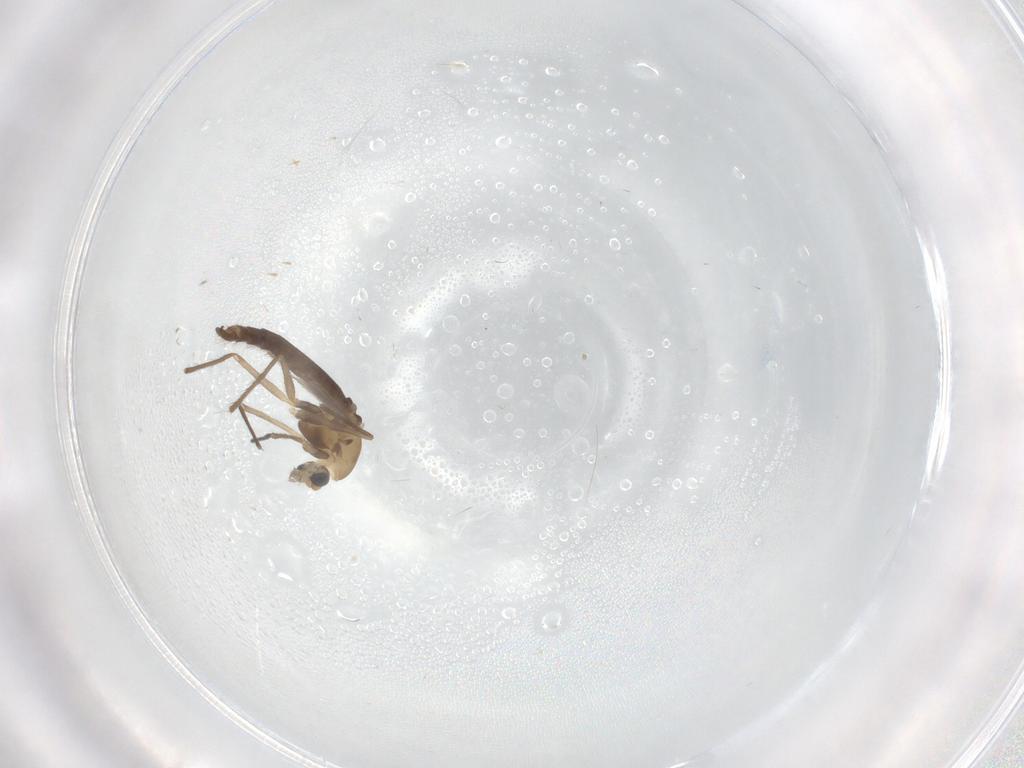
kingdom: Animalia
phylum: Arthropoda
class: Insecta
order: Diptera
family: Chironomidae
